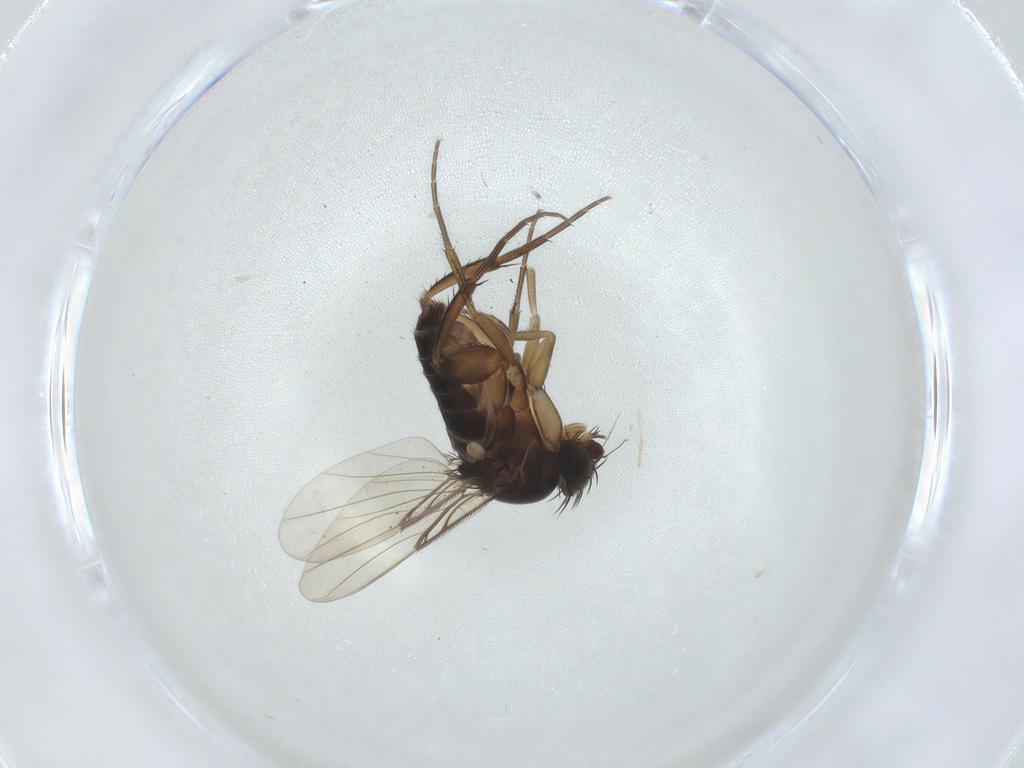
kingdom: Animalia
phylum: Arthropoda
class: Insecta
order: Diptera
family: Phoridae
